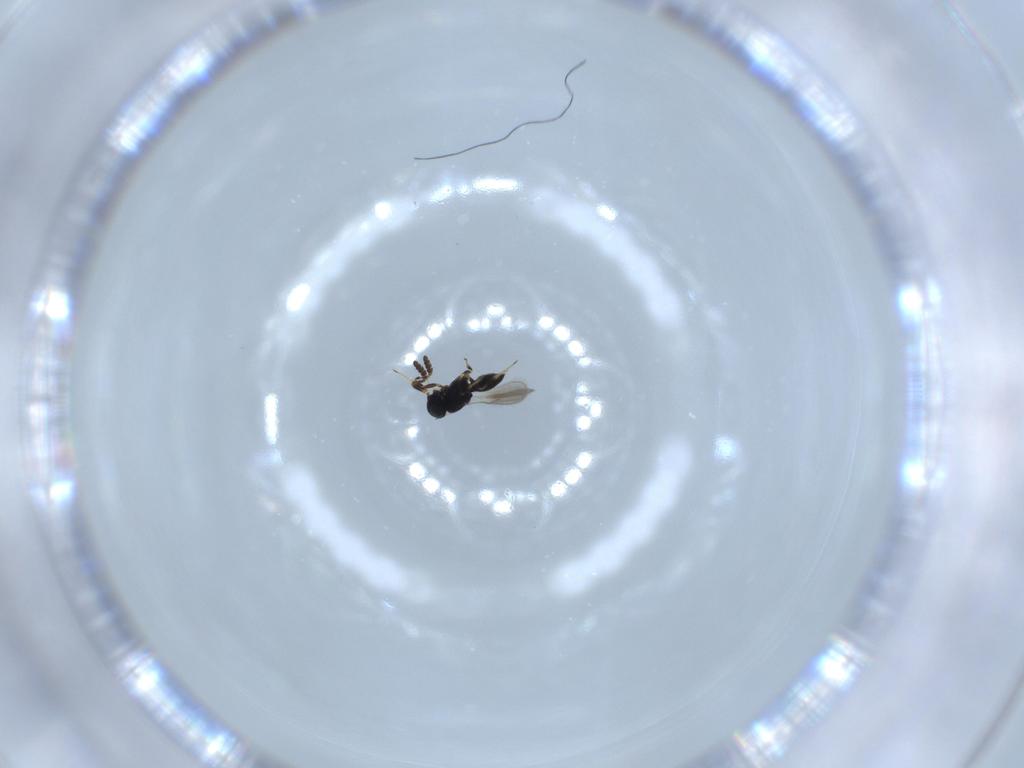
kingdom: Animalia
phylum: Arthropoda
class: Insecta
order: Hymenoptera
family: Scelionidae
